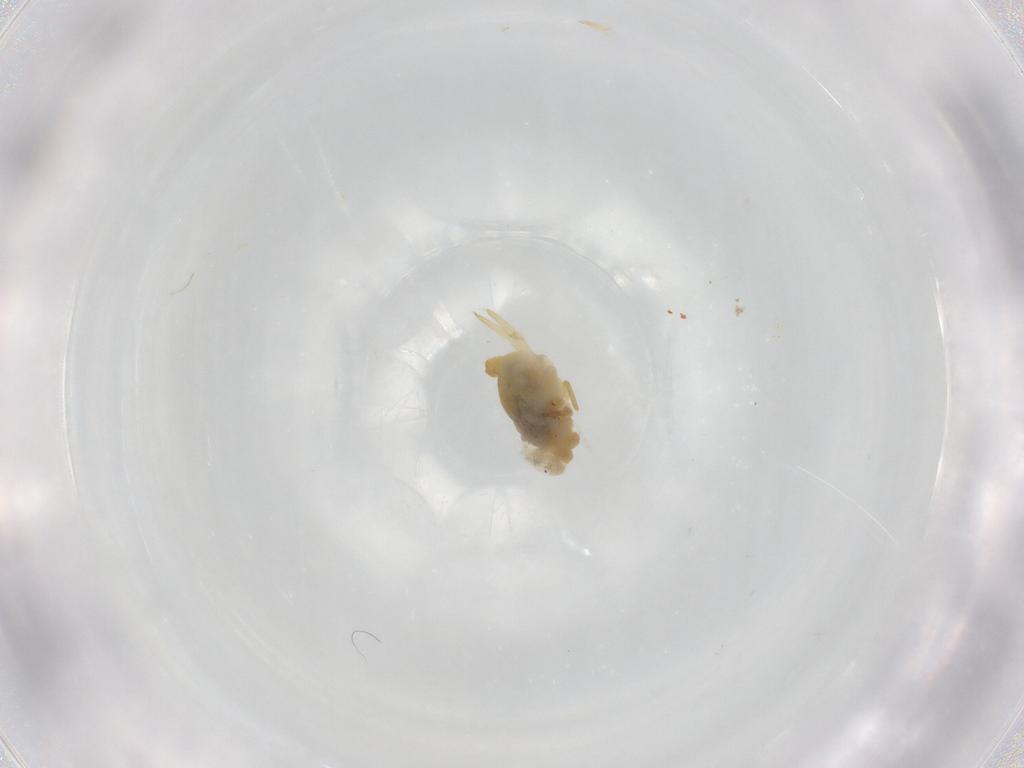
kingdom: Animalia
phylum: Arthropoda
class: Collembola
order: Symphypleona
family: Bourletiellidae
